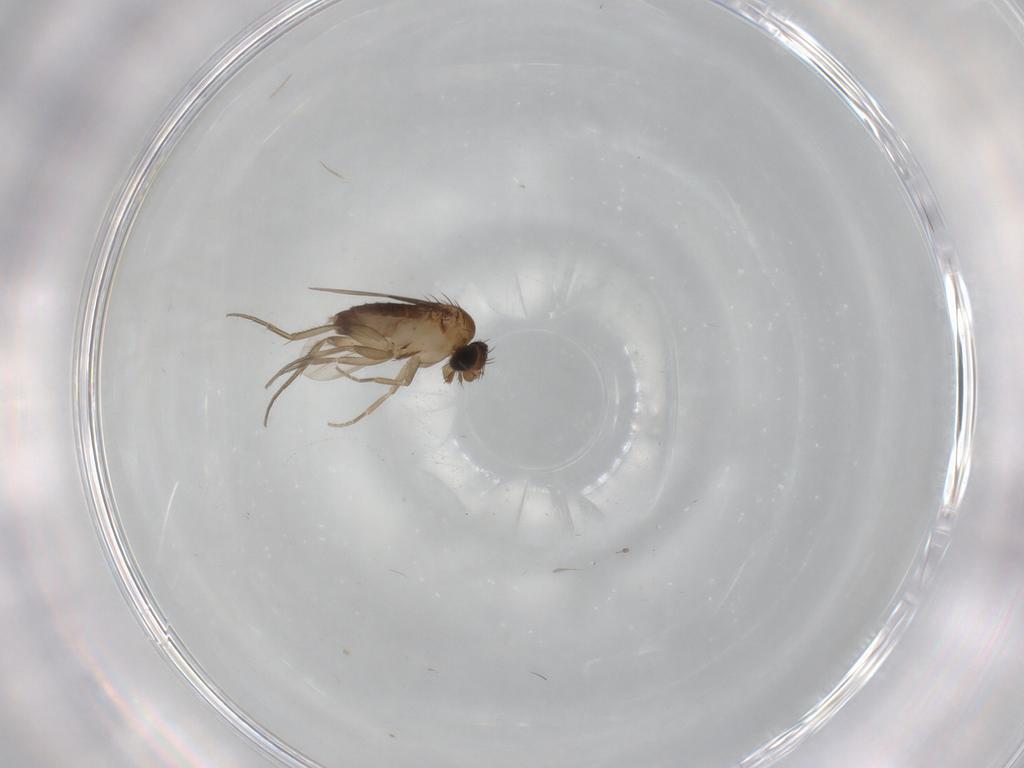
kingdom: Animalia
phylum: Arthropoda
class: Insecta
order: Diptera
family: Phoridae
